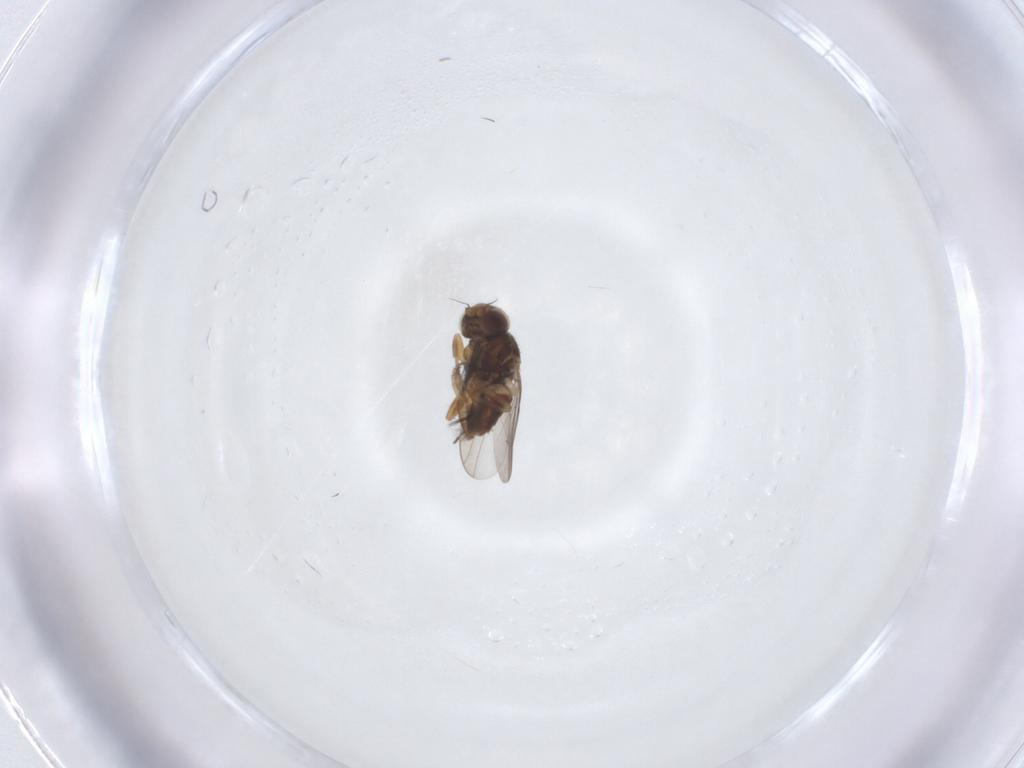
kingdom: Animalia
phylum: Arthropoda
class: Insecta
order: Diptera
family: Ceratopogonidae
